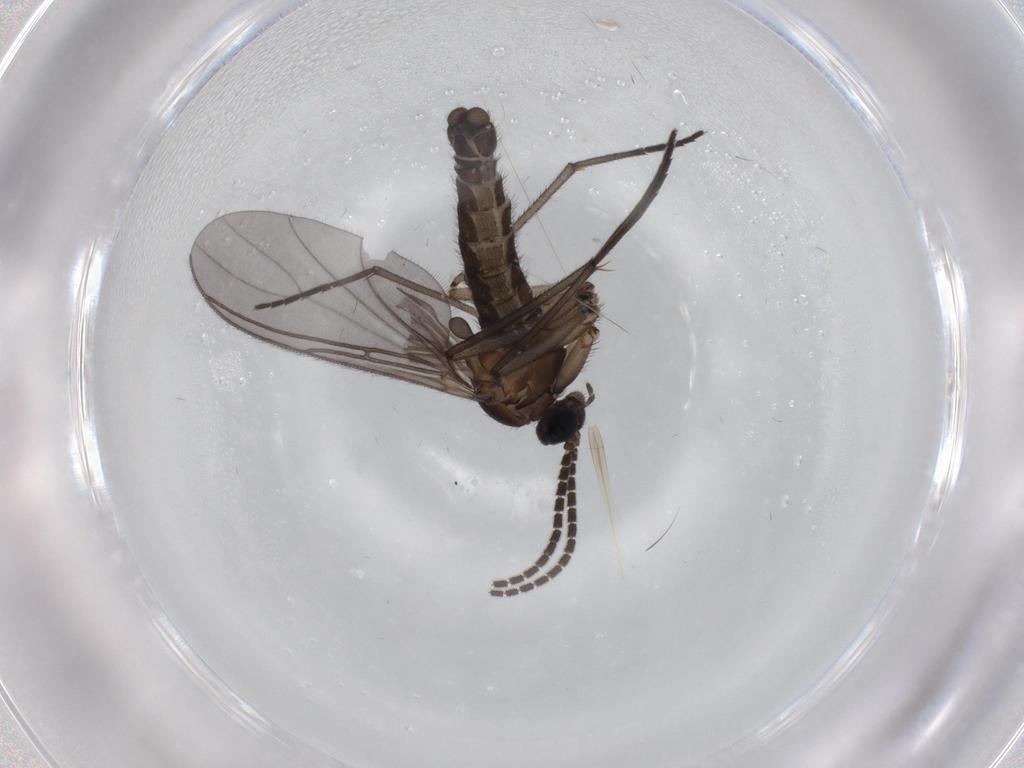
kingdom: Animalia
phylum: Arthropoda
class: Insecta
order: Diptera
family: Sciaridae
